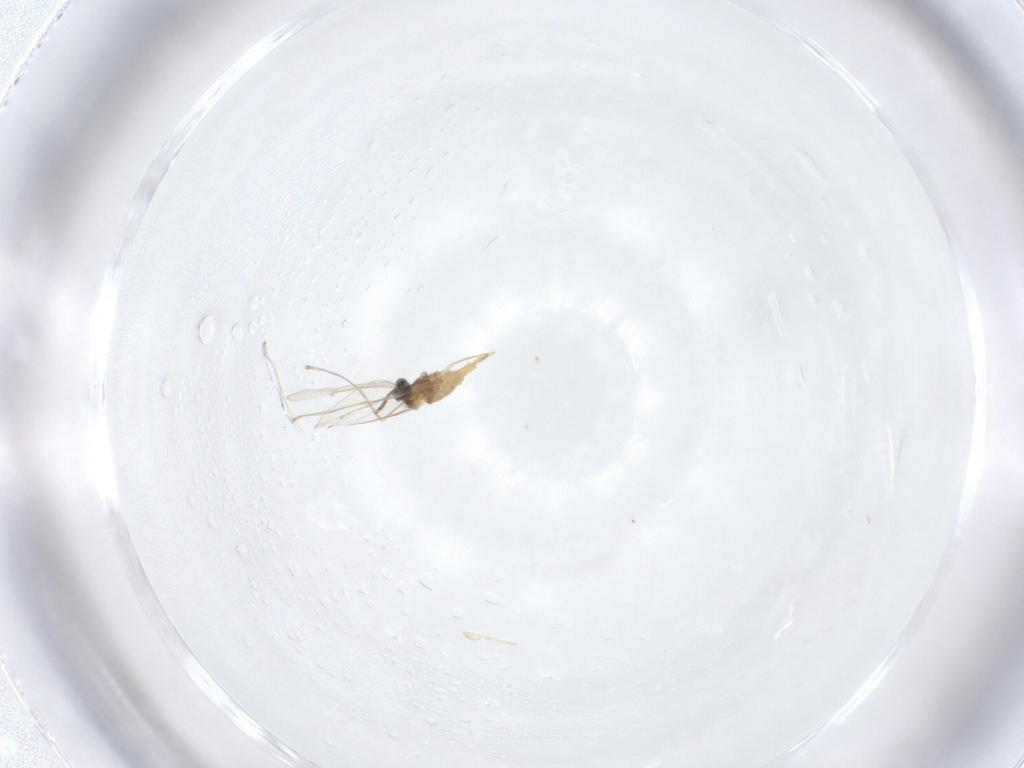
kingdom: Animalia
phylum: Arthropoda
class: Insecta
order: Diptera
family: Cecidomyiidae
